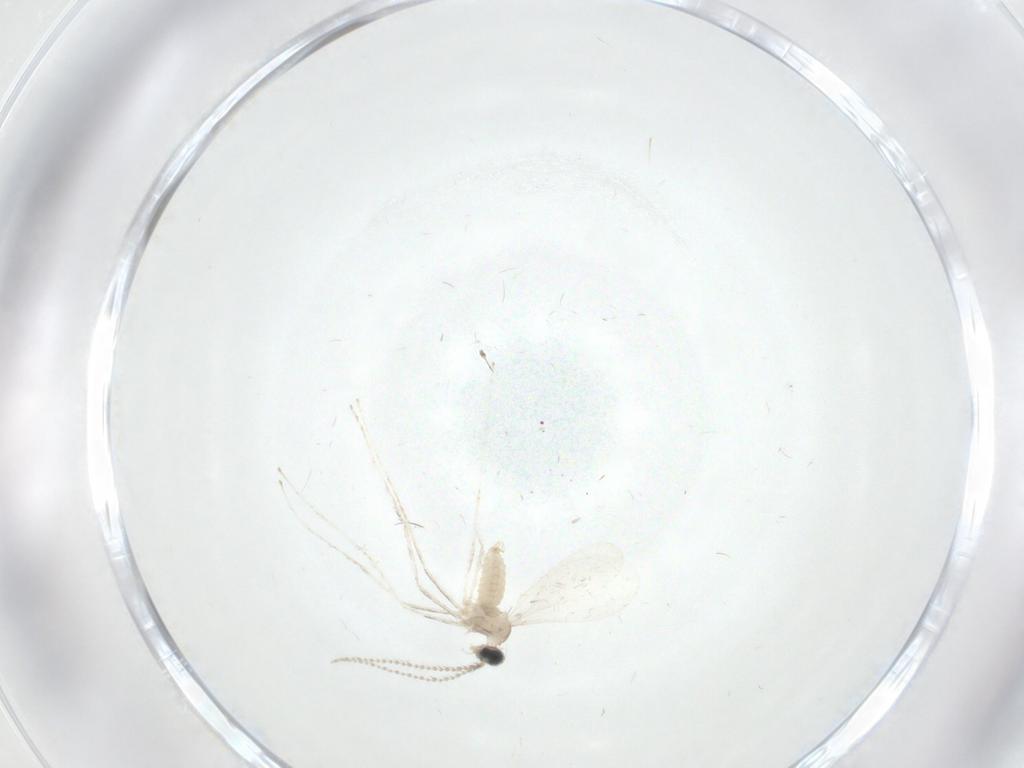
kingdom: Animalia
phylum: Arthropoda
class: Insecta
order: Diptera
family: Cecidomyiidae
